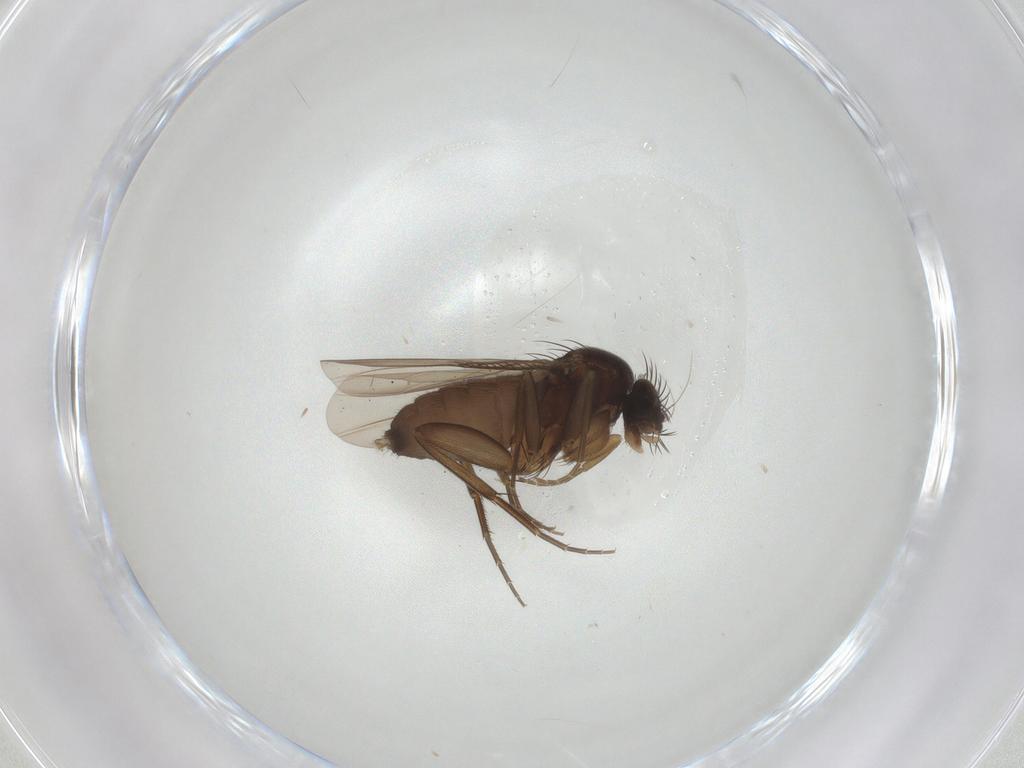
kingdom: Animalia
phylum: Arthropoda
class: Insecta
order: Diptera
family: Phoridae
